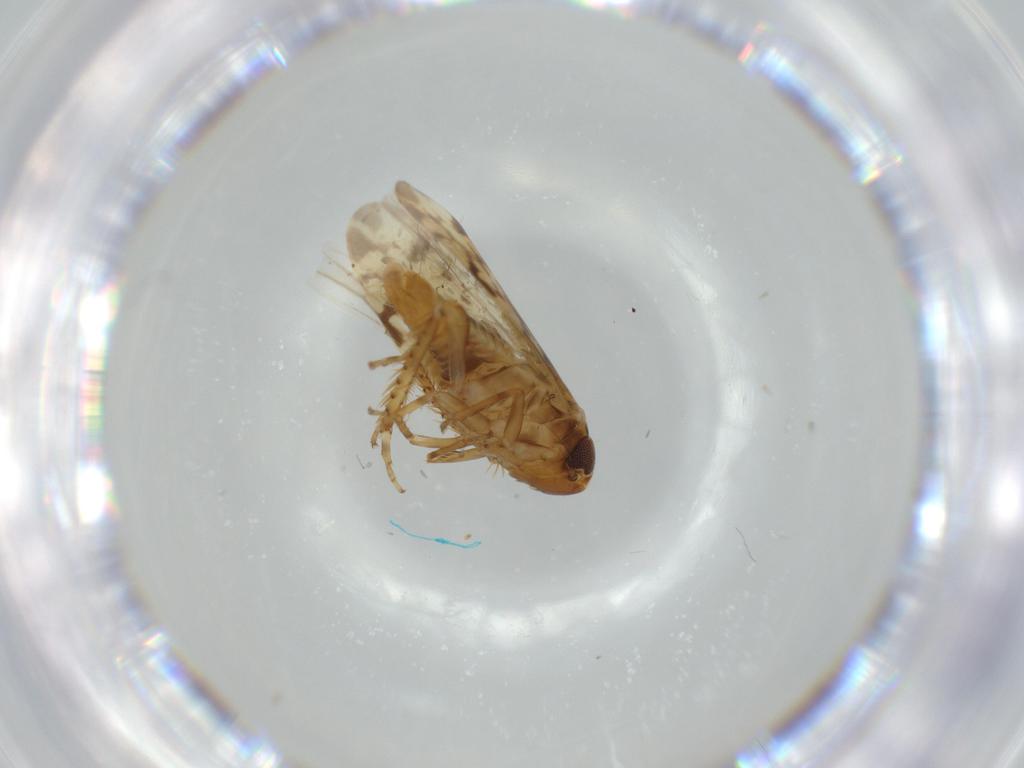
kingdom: Animalia
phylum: Arthropoda
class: Insecta
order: Hemiptera
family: Cicadellidae
